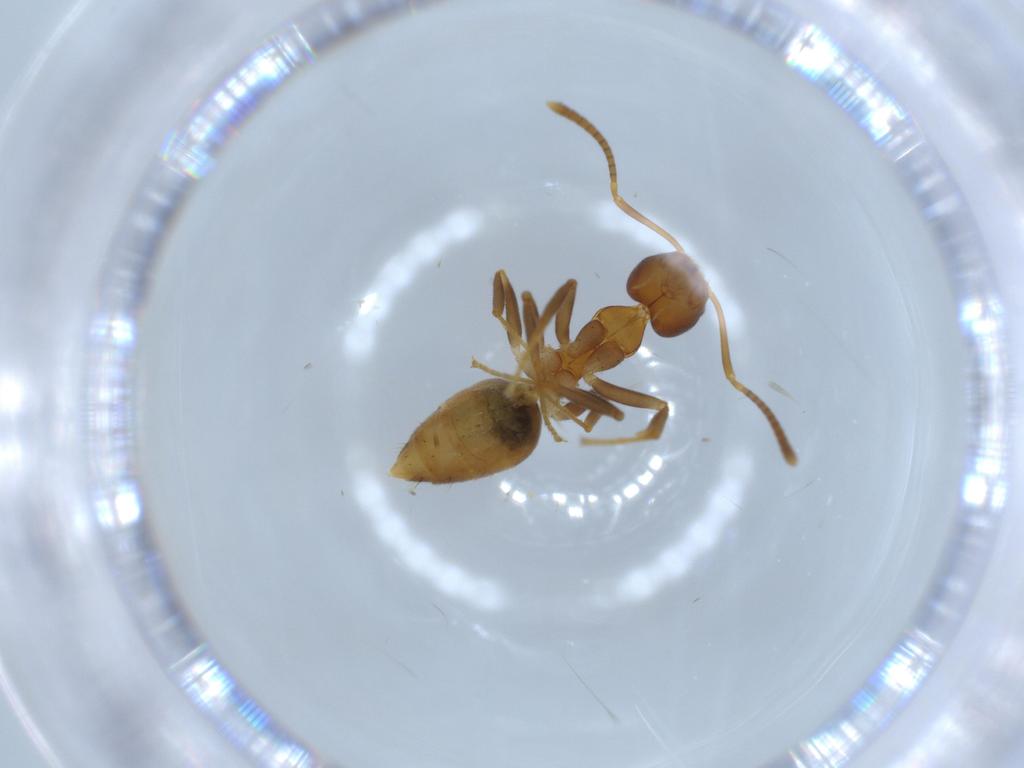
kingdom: Animalia
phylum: Arthropoda
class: Insecta
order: Hymenoptera
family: Formicidae
